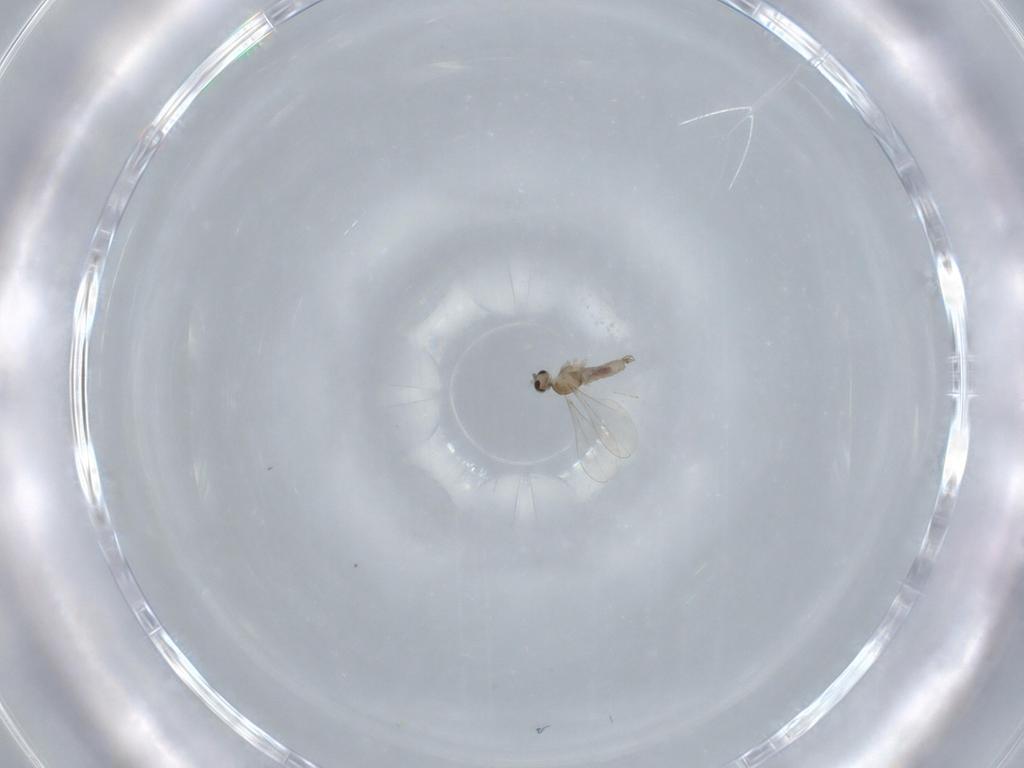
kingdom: Animalia
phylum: Arthropoda
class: Insecta
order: Diptera
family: Cecidomyiidae
